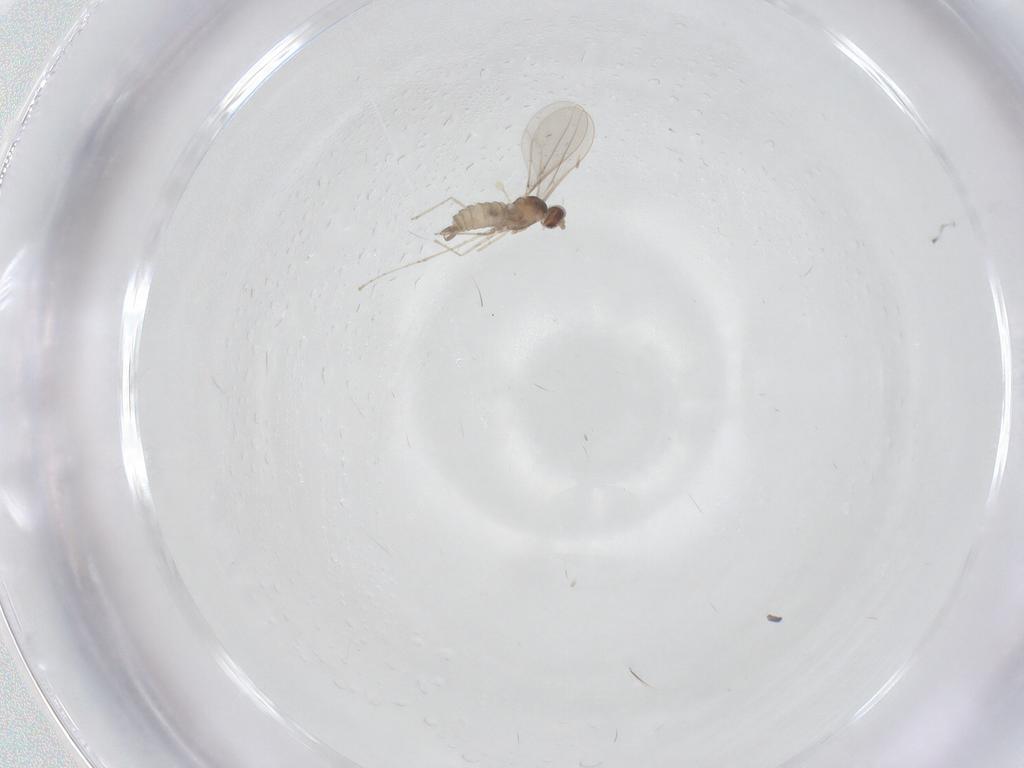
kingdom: Animalia
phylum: Arthropoda
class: Insecta
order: Diptera
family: Cecidomyiidae
